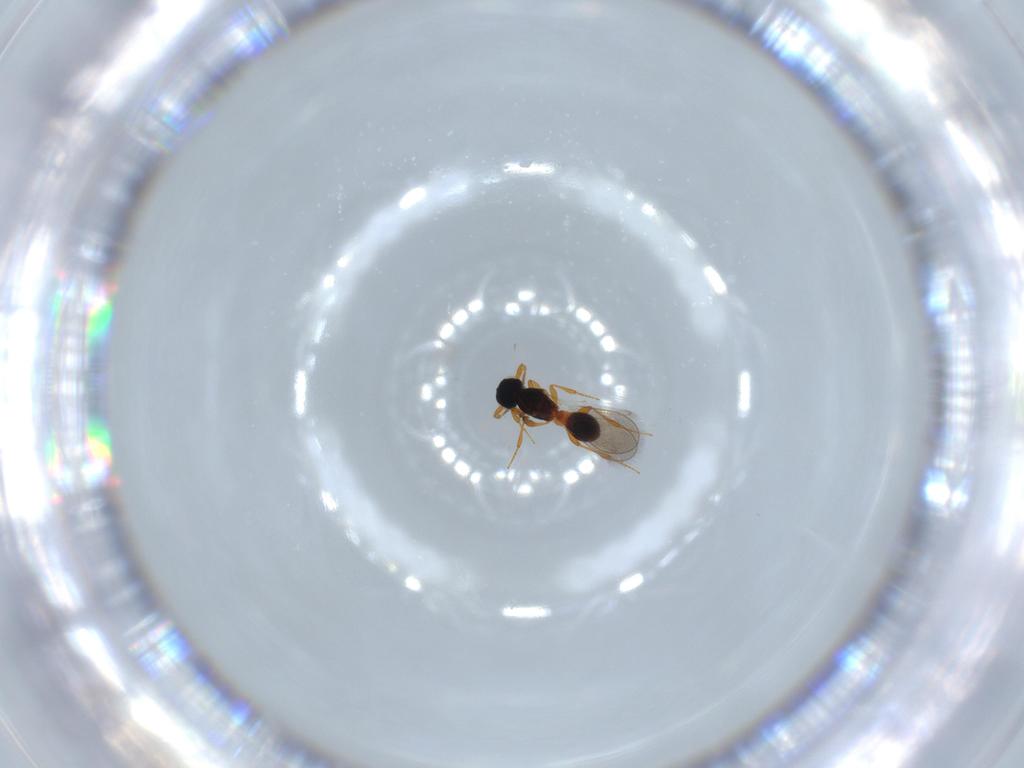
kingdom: Animalia
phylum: Arthropoda
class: Insecta
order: Hymenoptera
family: Platygastridae
